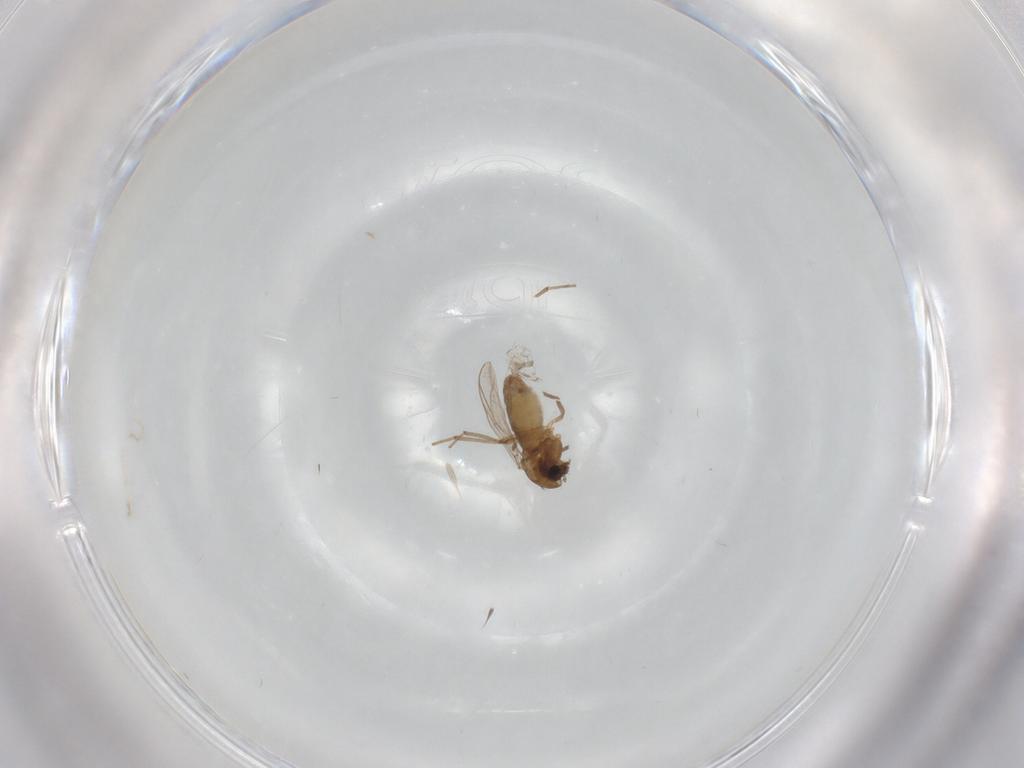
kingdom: Animalia
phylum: Arthropoda
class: Insecta
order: Diptera
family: Chironomidae
